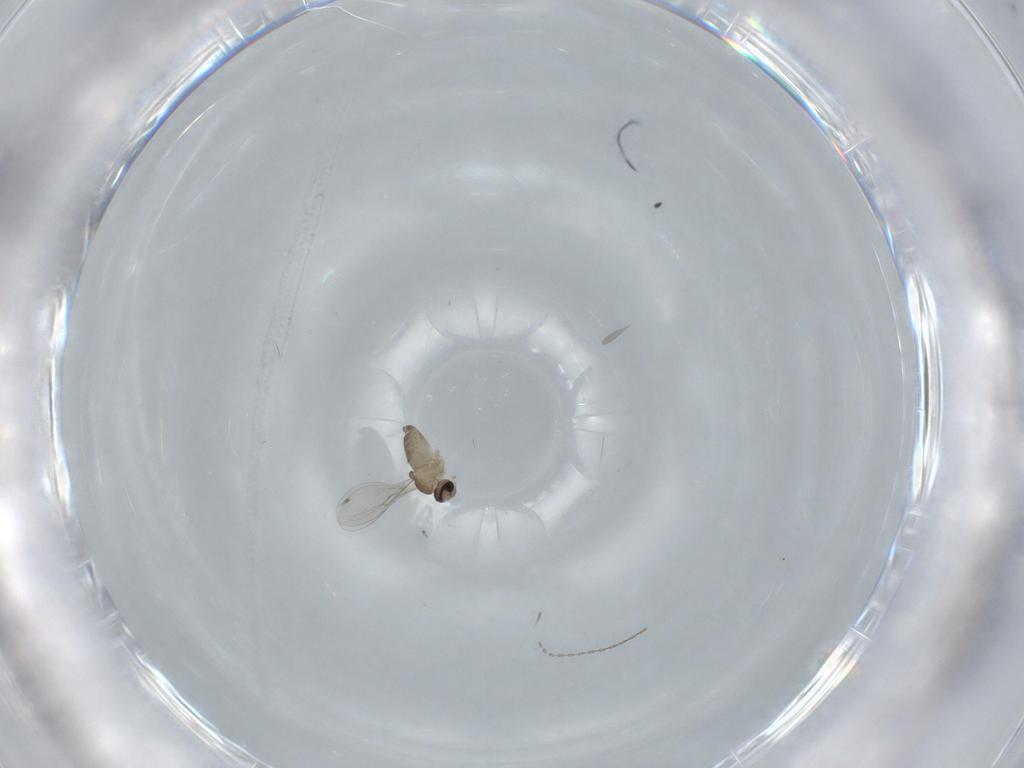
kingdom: Animalia
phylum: Arthropoda
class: Insecta
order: Diptera
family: Cecidomyiidae
